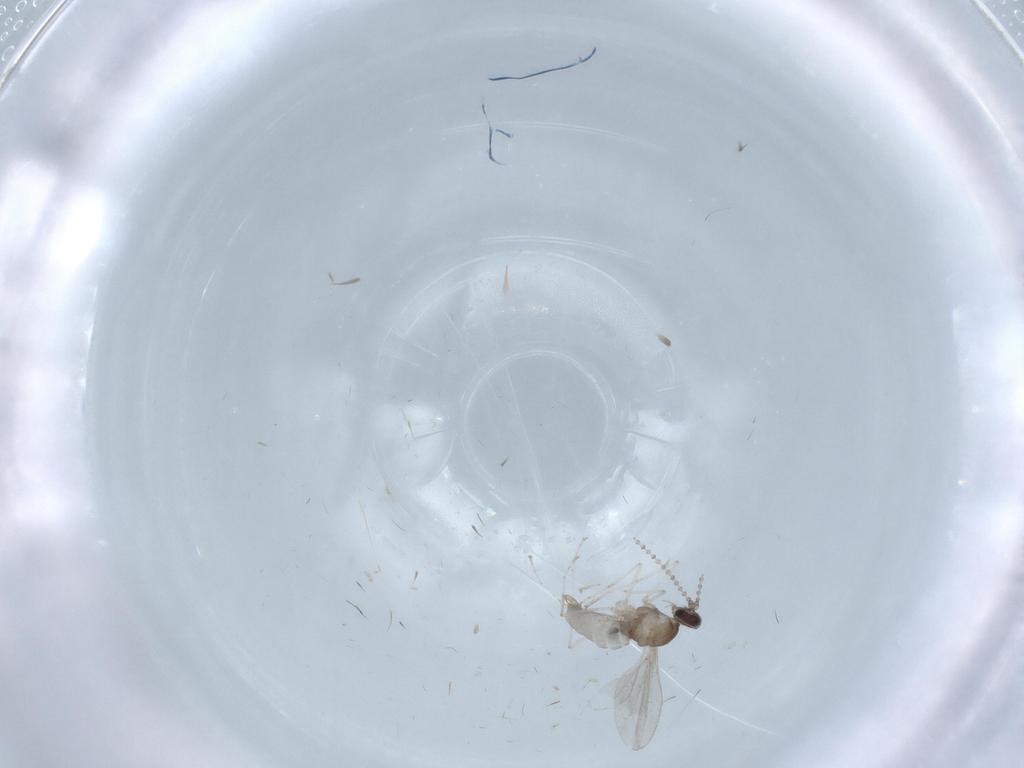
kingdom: Animalia
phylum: Arthropoda
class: Insecta
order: Diptera
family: Cecidomyiidae
